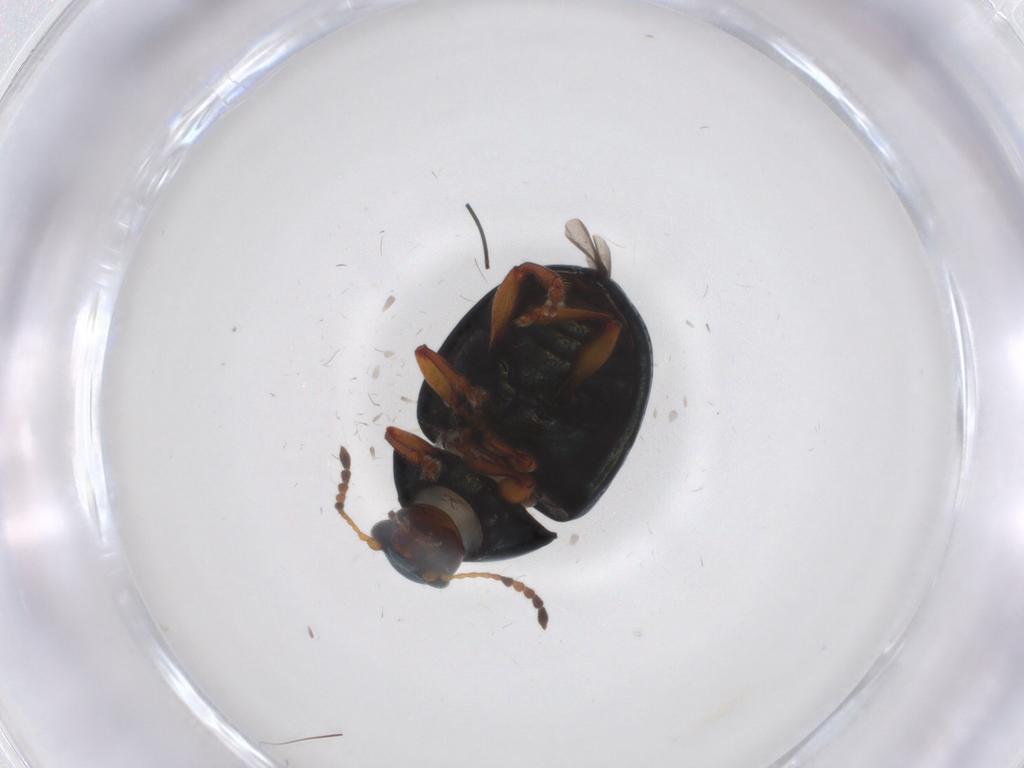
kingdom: Animalia
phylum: Arthropoda
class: Insecta
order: Coleoptera
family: Chrysomelidae
